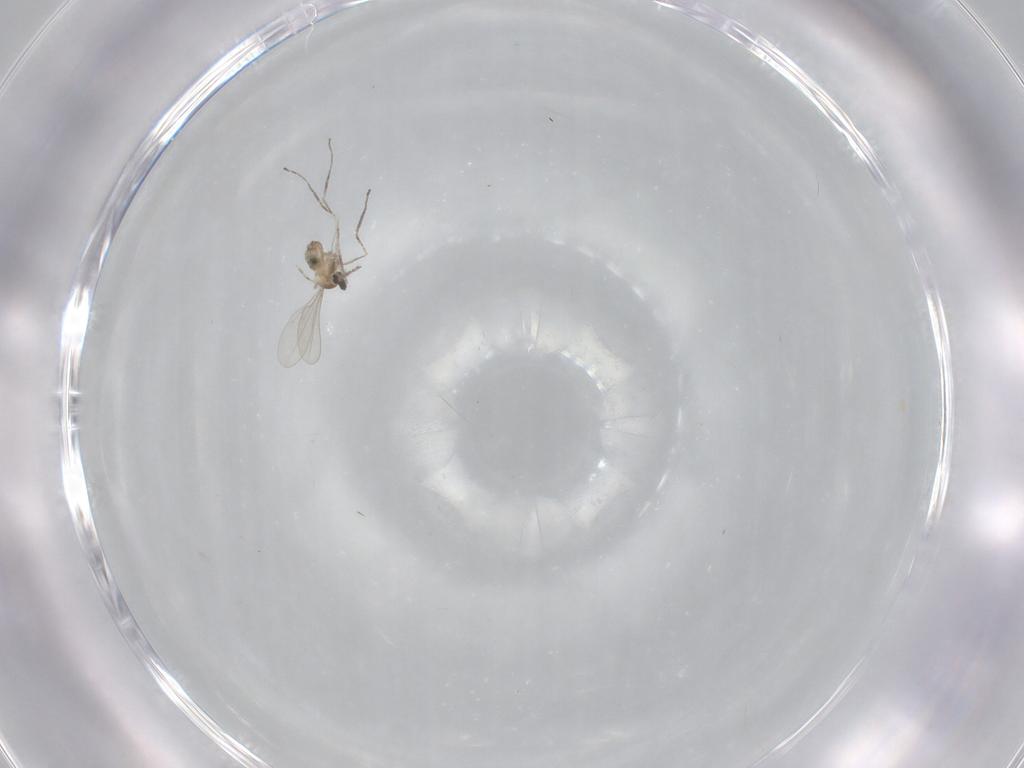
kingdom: Animalia
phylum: Arthropoda
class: Insecta
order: Diptera
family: Cecidomyiidae
